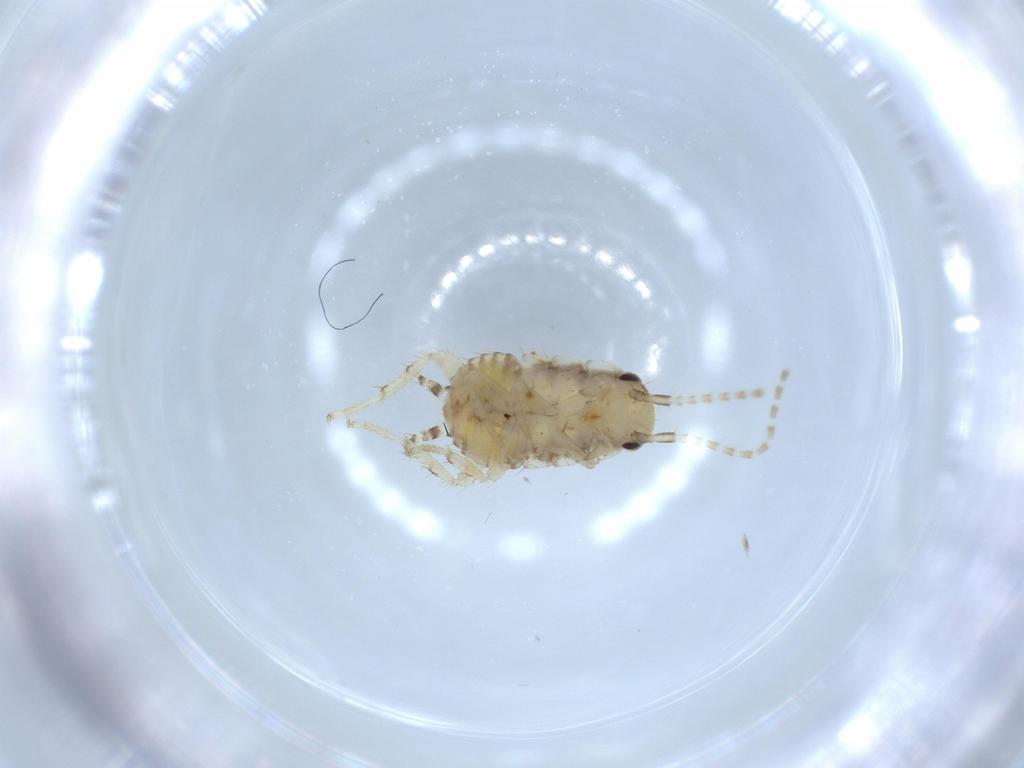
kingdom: Animalia
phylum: Arthropoda
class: Insecta
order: Blattodea
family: Ectobiidae
